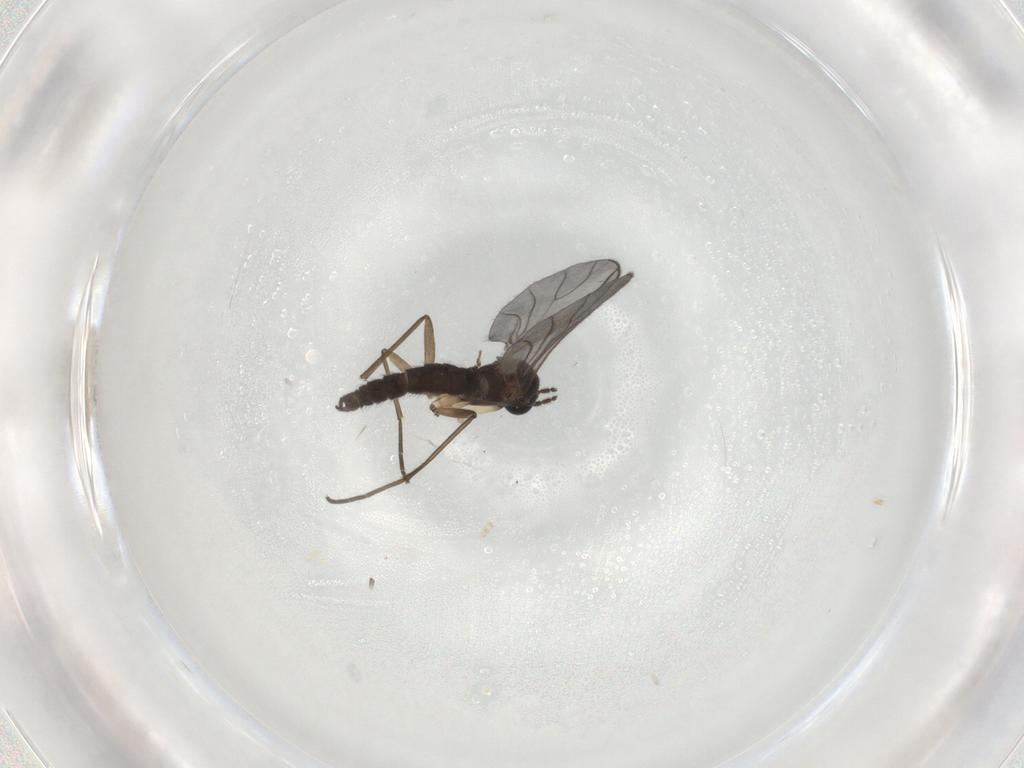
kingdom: Animalia
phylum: Arthropoda
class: Insecta
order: Diptera
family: Sciaridae
